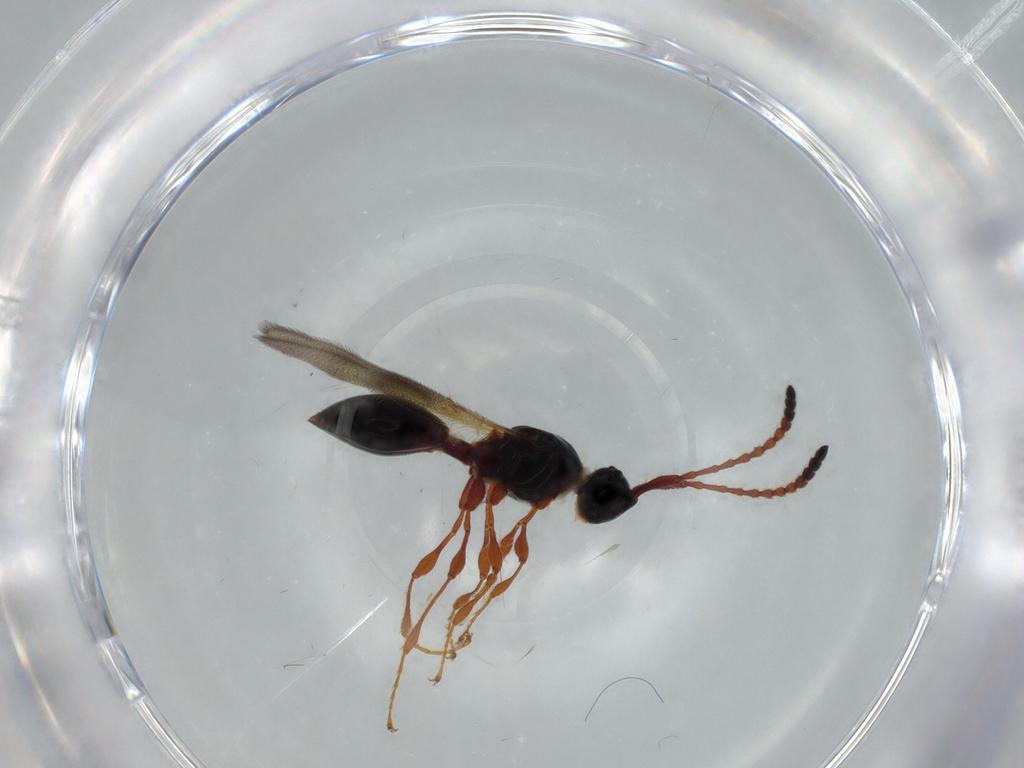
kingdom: Animalia
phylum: Arthropoda
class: Insecta
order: Hymenoptera
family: Diapriidae
